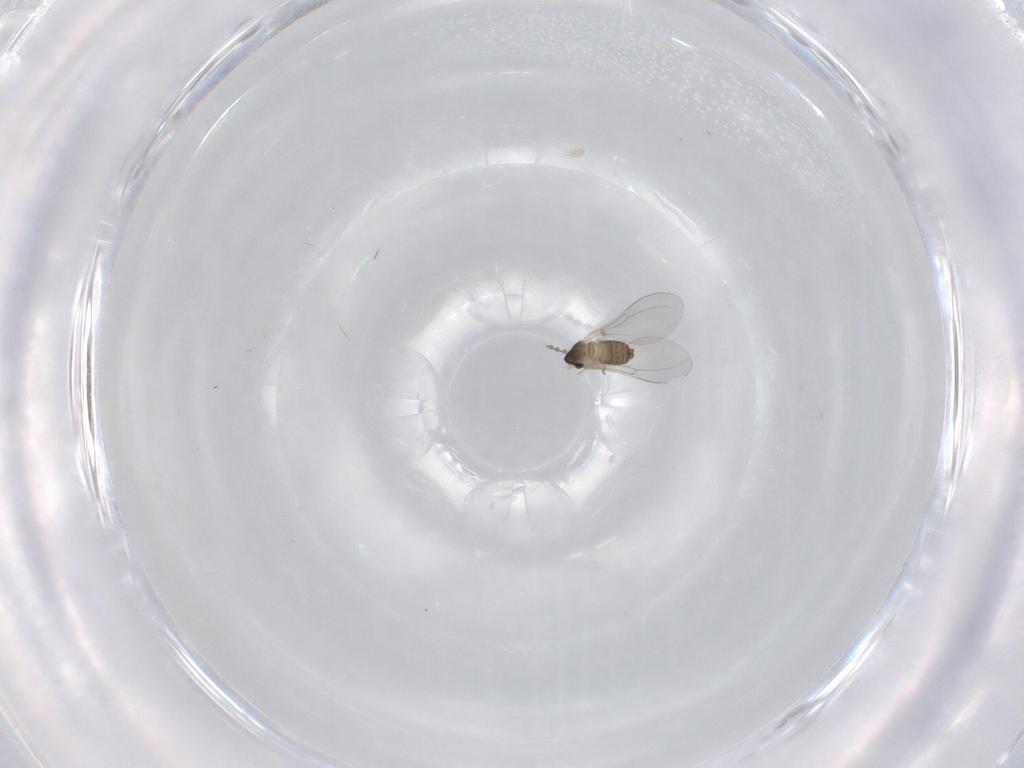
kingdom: Animalia
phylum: Arthropoda
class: Insecta
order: Diptera
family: Cecidomyiidae
